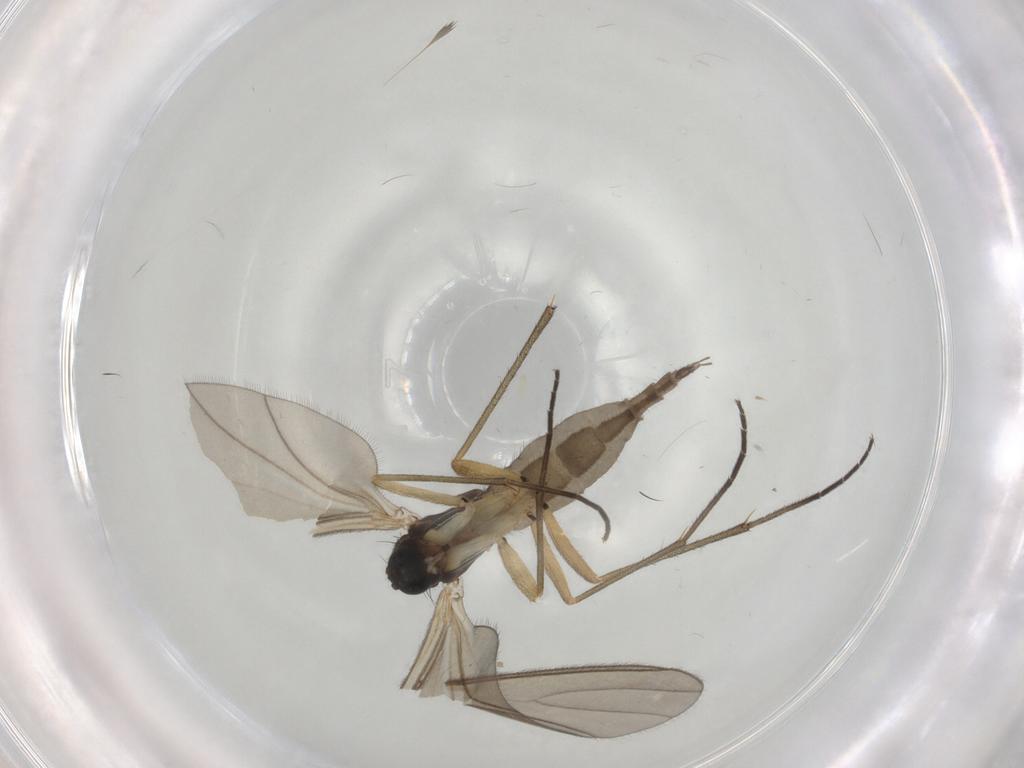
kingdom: Animalia
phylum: Arthropoda
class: Insecta
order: Diptera
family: Sciaridae
